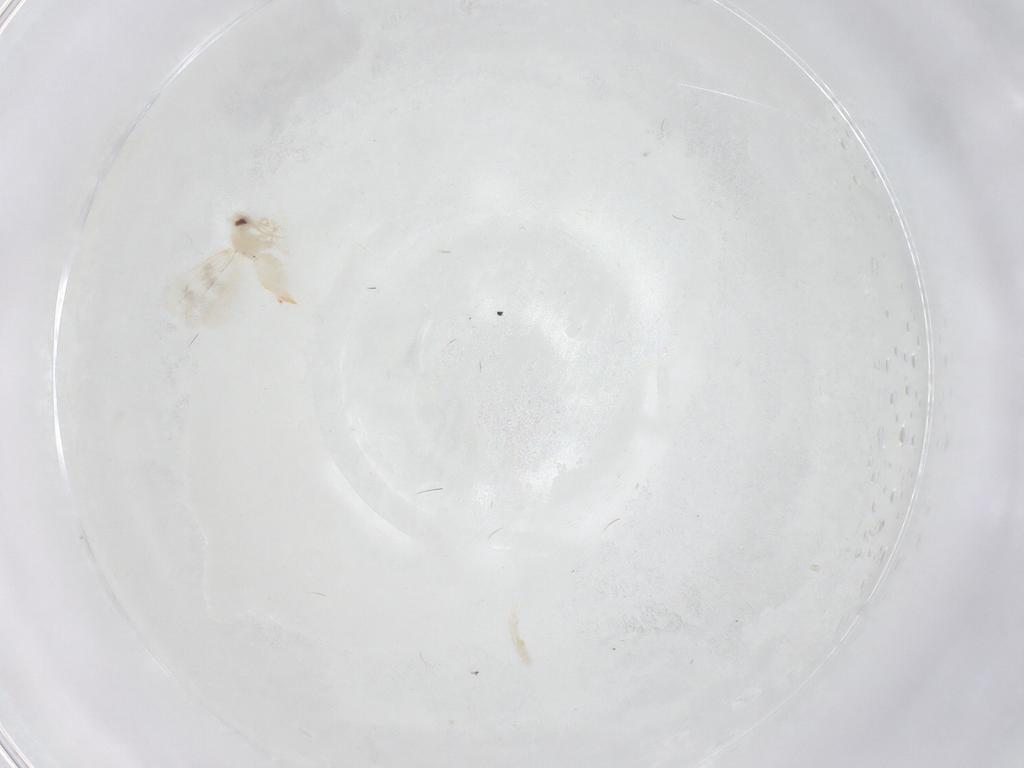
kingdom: Animalia
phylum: Arthropoda
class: Insecta
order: Hemiptera
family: Aleyrodidae
